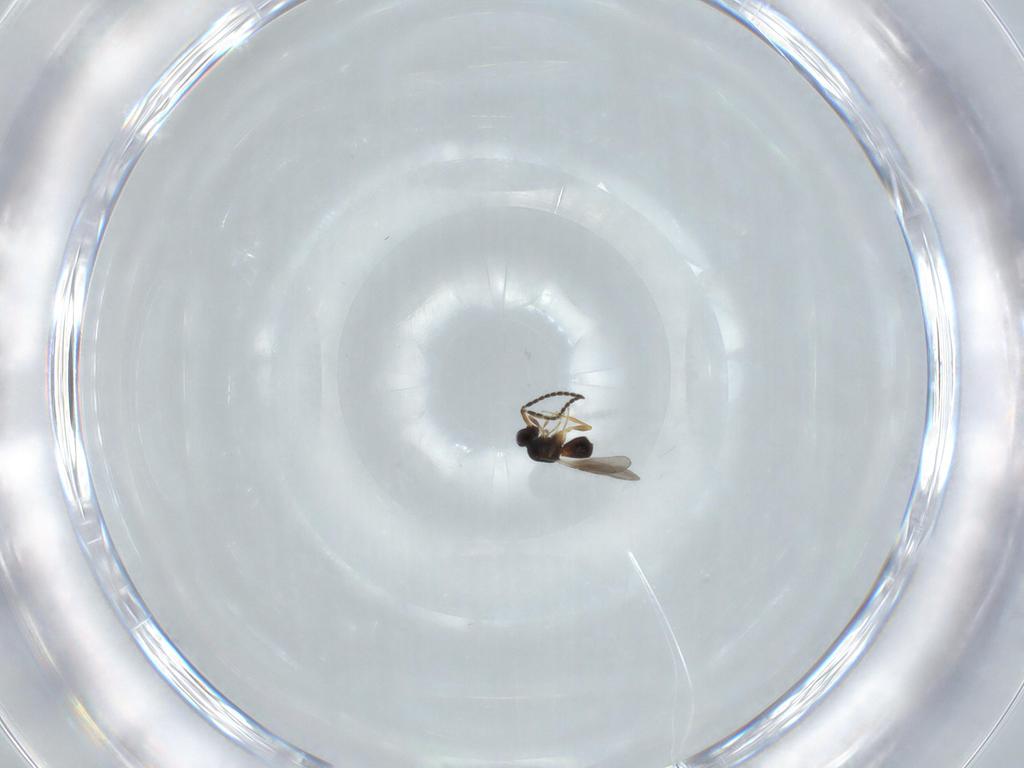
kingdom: Animalia
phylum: Arthropoda
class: Insecta
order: Hymenoptera
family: Ceraphronidae
